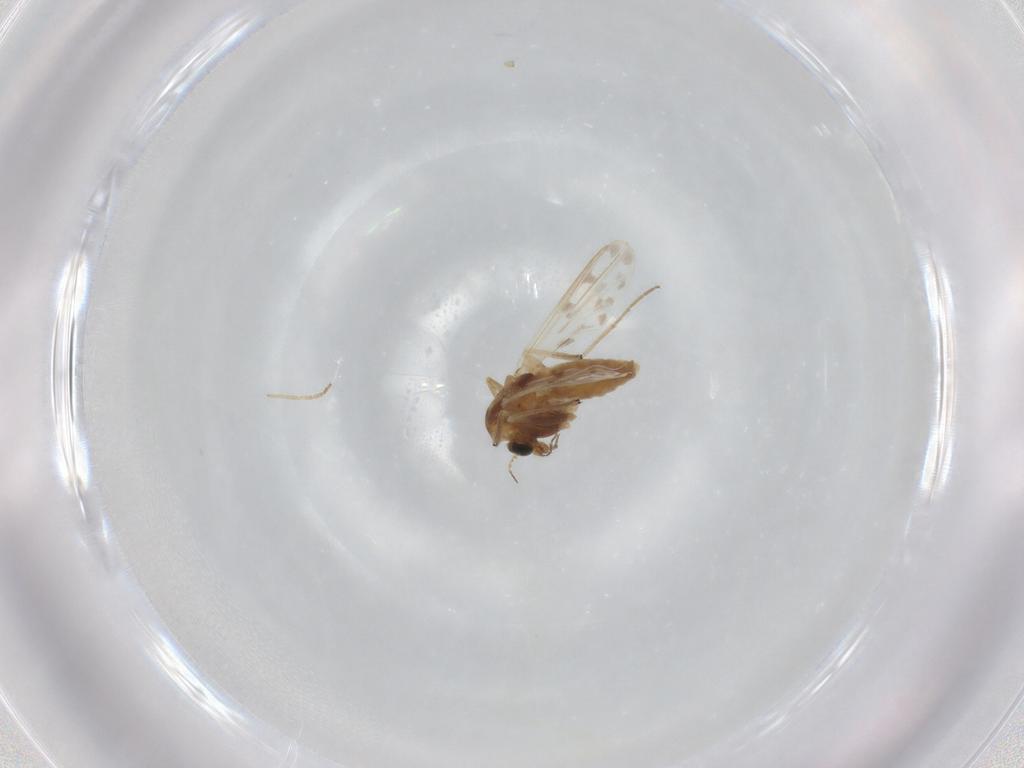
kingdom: Animalia
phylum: Arthropoda
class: Insecta
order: Diptera
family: Chironomidae
